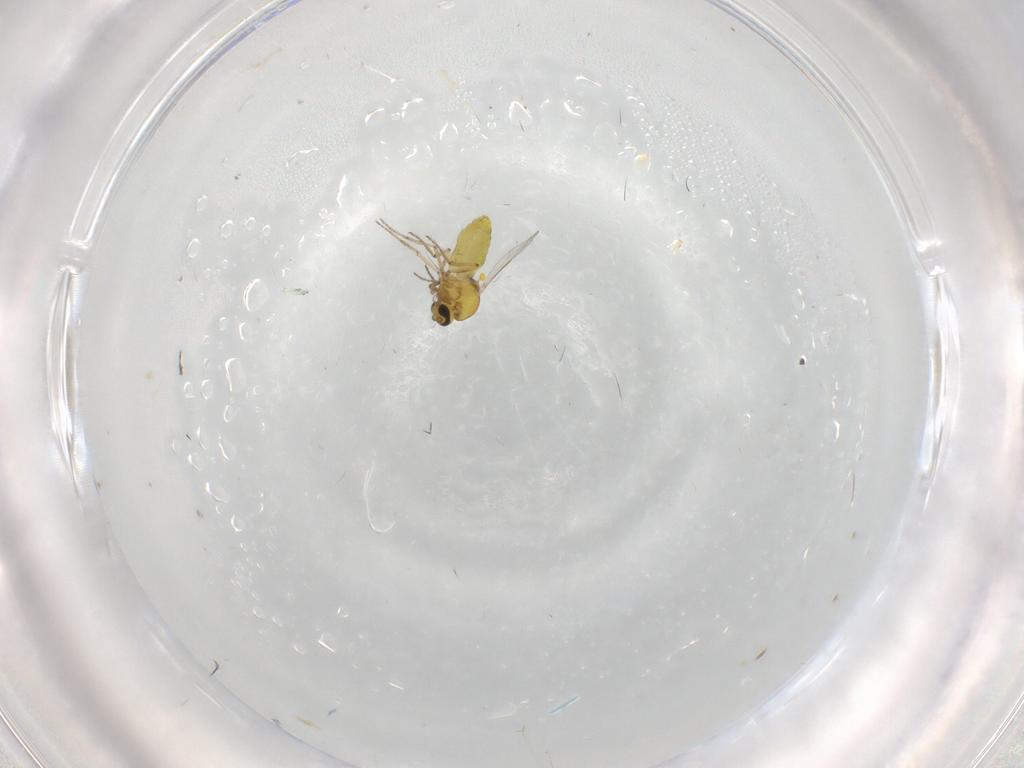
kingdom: Animalia
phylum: Arthropoda
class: Insecta
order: Diptera
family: Ceratopogonidae
